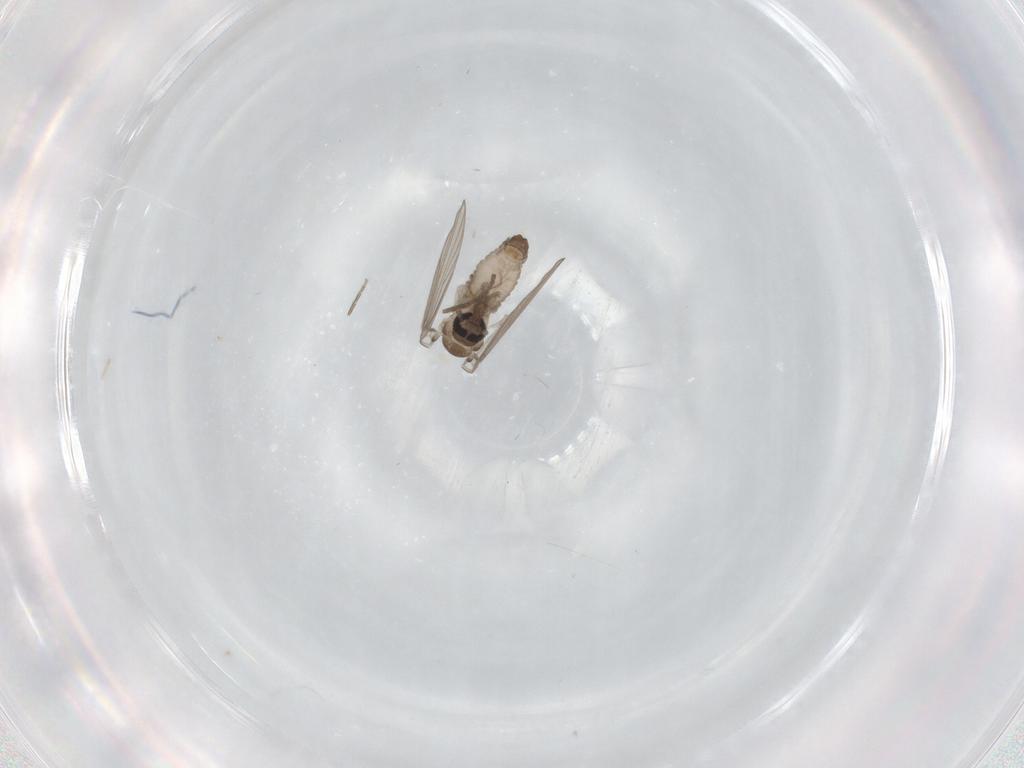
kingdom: Animalia
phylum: Arthropoda
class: Insecta
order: Diptera
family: Psychodidae
